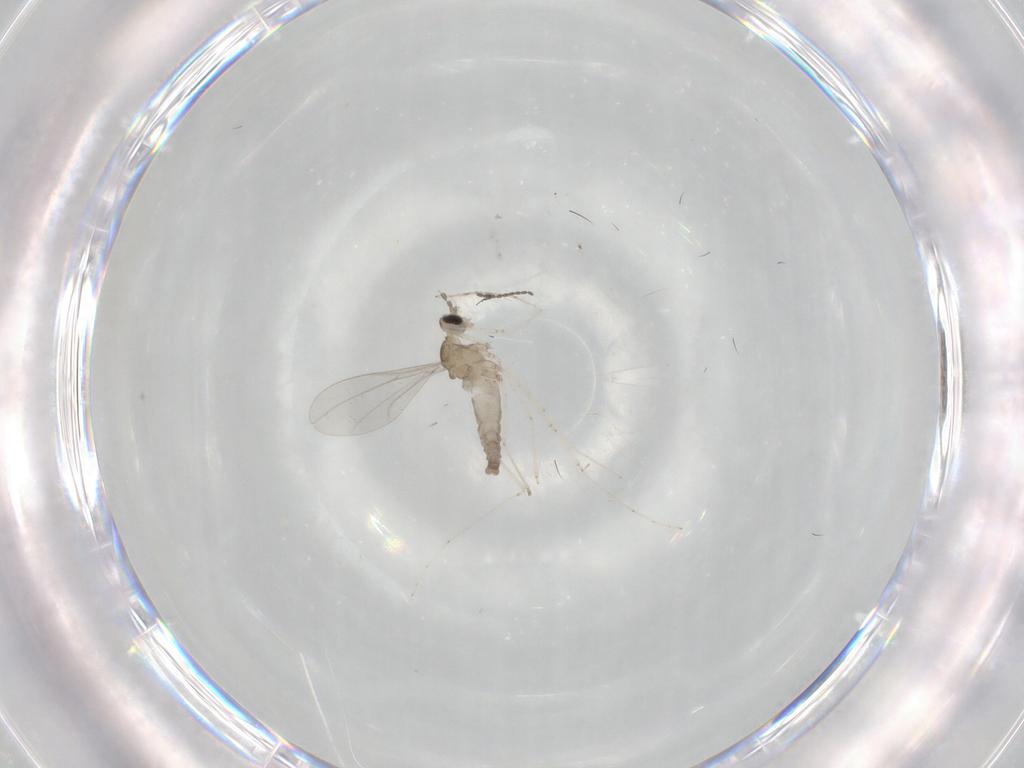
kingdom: Animalia
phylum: Arthropoda
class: Insecta
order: Diptera
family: Cecidomyiidae
